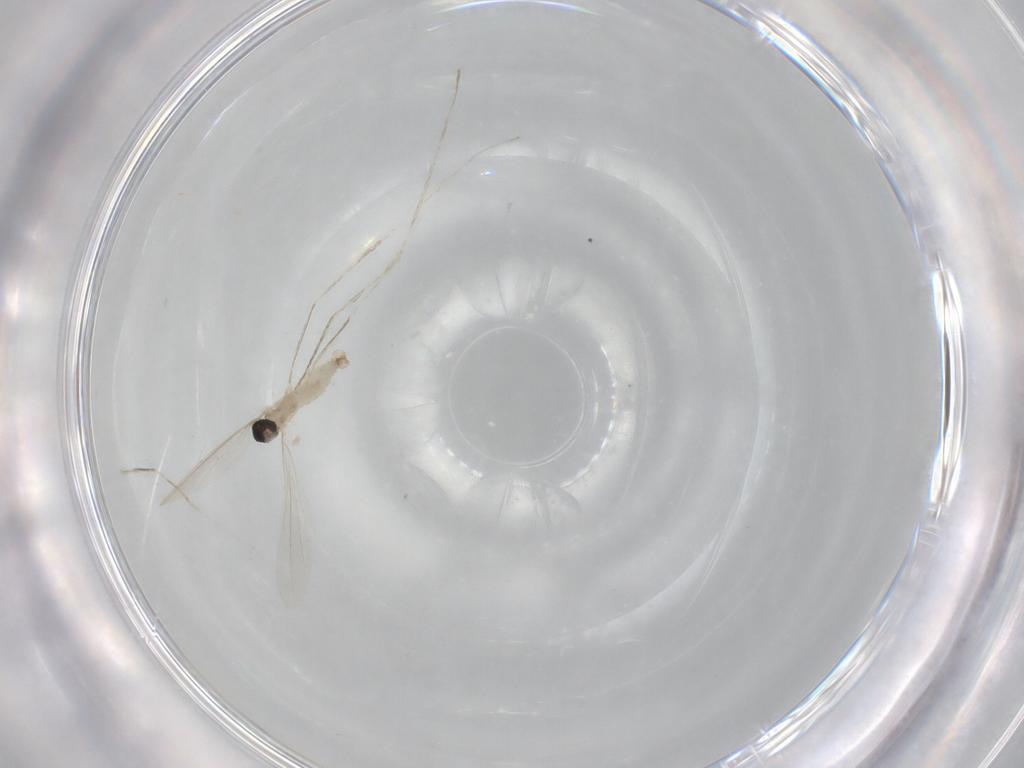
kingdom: Animalia
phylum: Arthropoda
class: Insecta
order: Diptera
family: Cecidomyiidae
